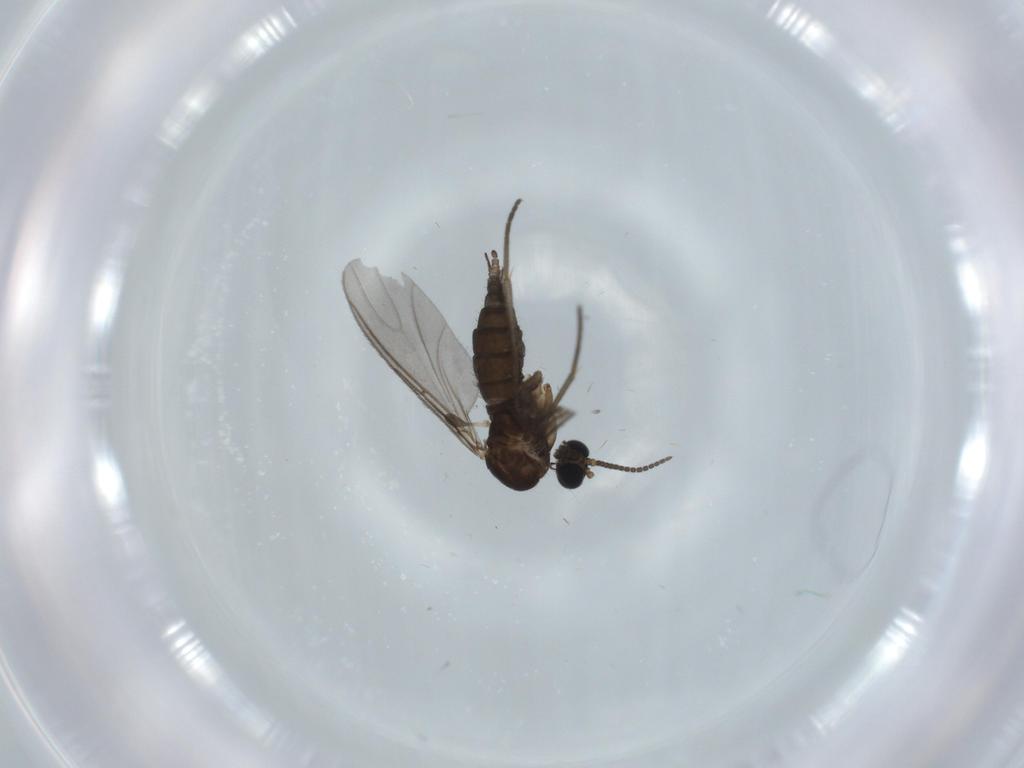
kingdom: Animalia
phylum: Arthropoda
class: Insecta
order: Diptera
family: Sciaridae
